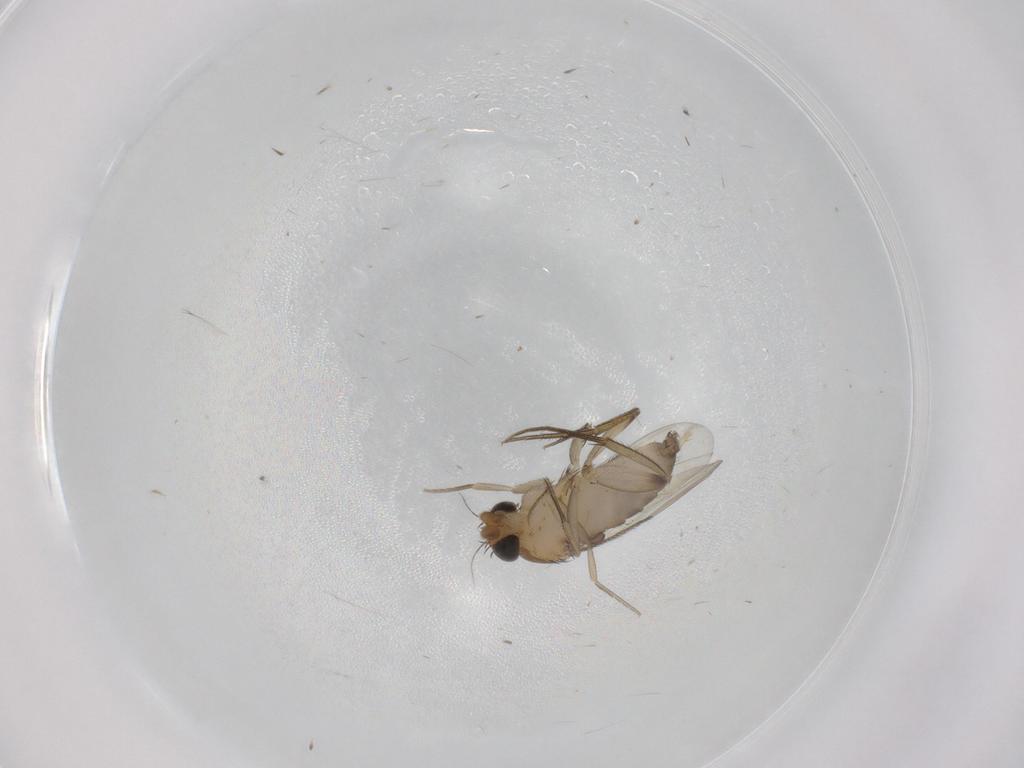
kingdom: Animalia
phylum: Arthropoda
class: Insecta
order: Diptera
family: Phoridae
